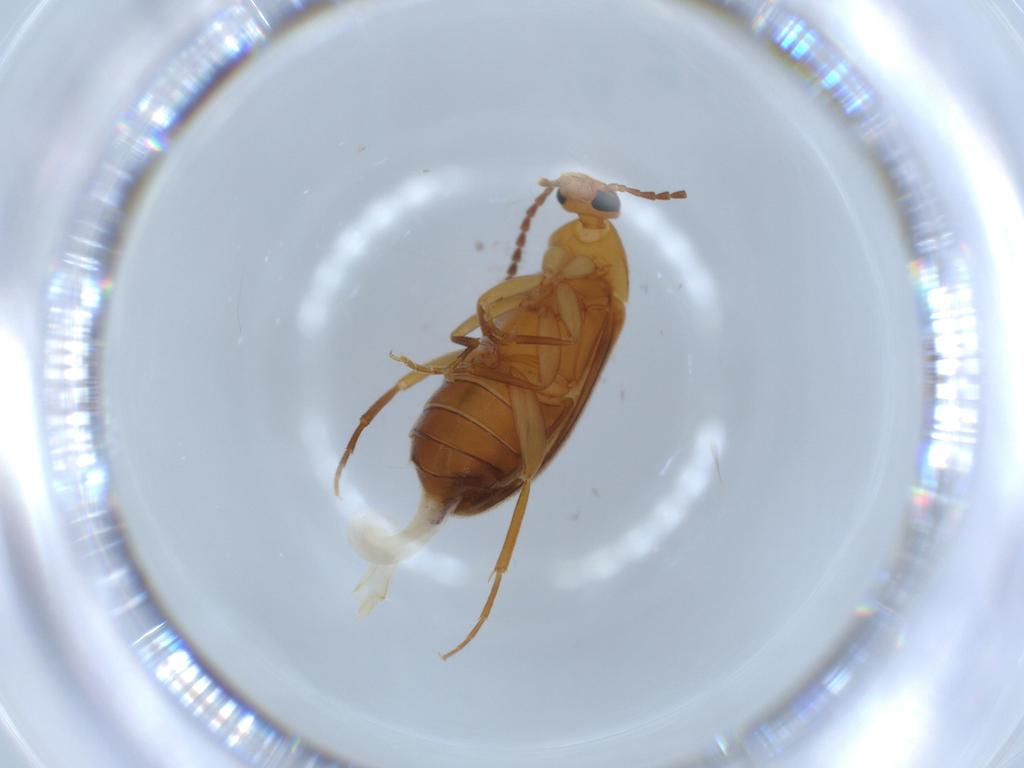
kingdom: Animalia
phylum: Arthropoda
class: Insecta
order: Coleoptera
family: Scraptiidae
